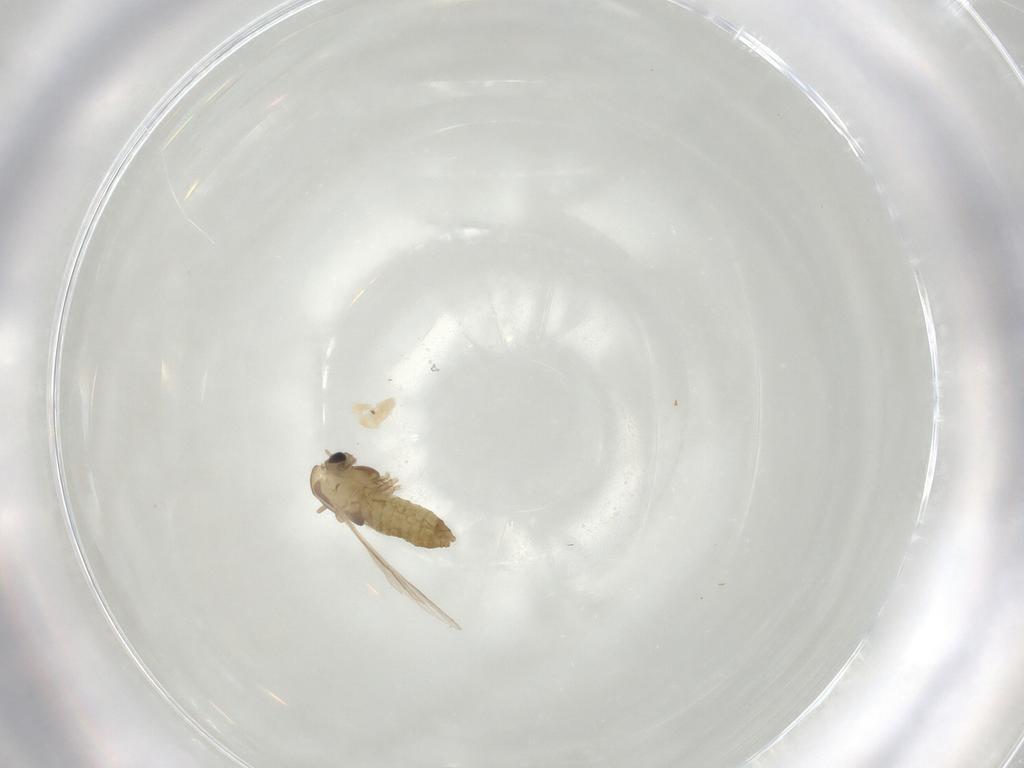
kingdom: Animalia
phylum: Arthropoda
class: Insecta
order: Diptera
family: Chironomidae
